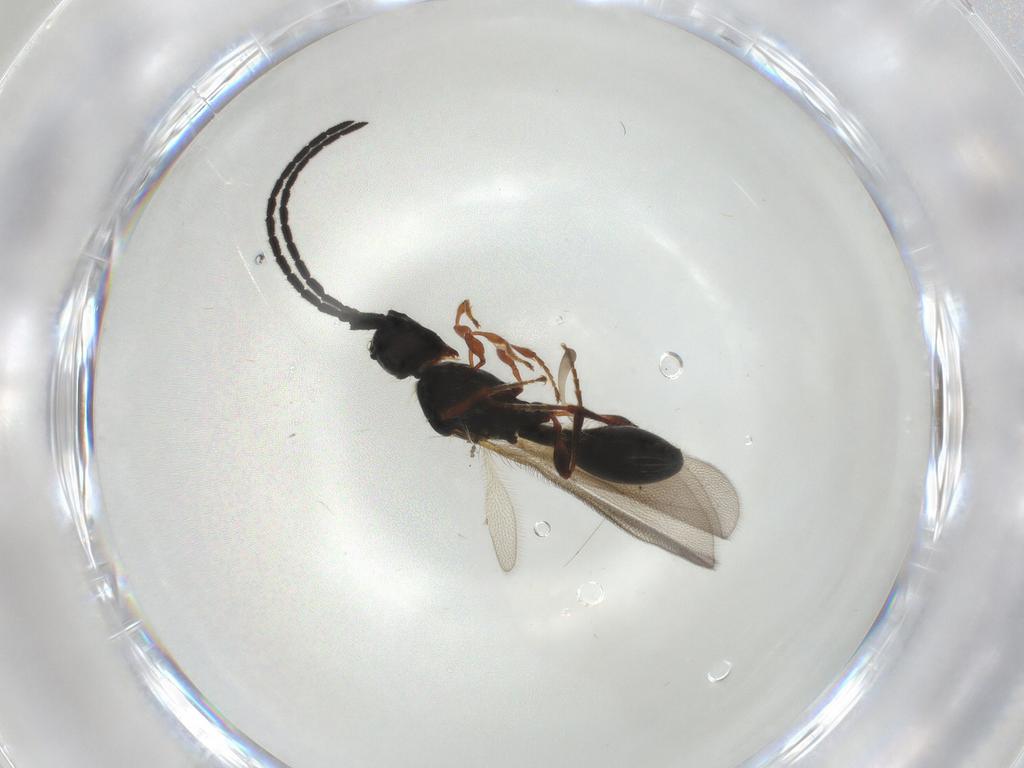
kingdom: Animalia
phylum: Arthropoda
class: Insecta
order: Hymenoptera
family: Diapriidae
